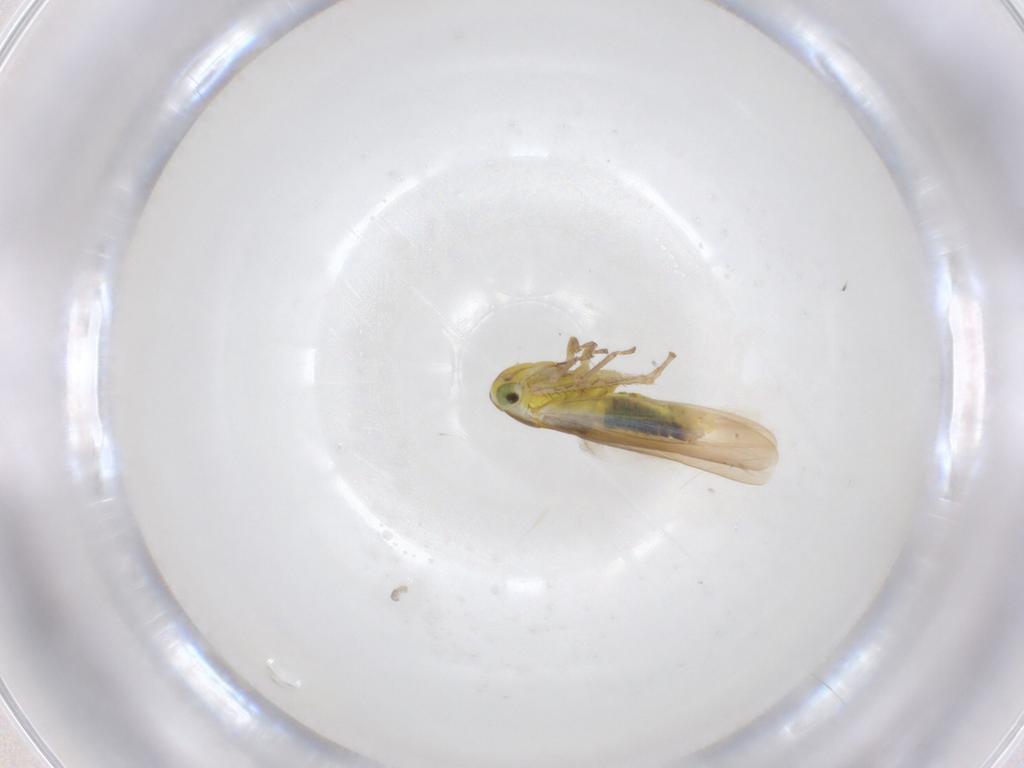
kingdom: Animalia
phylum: Arthropoda
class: Insecta
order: Hemiptera
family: Cicadellidae
